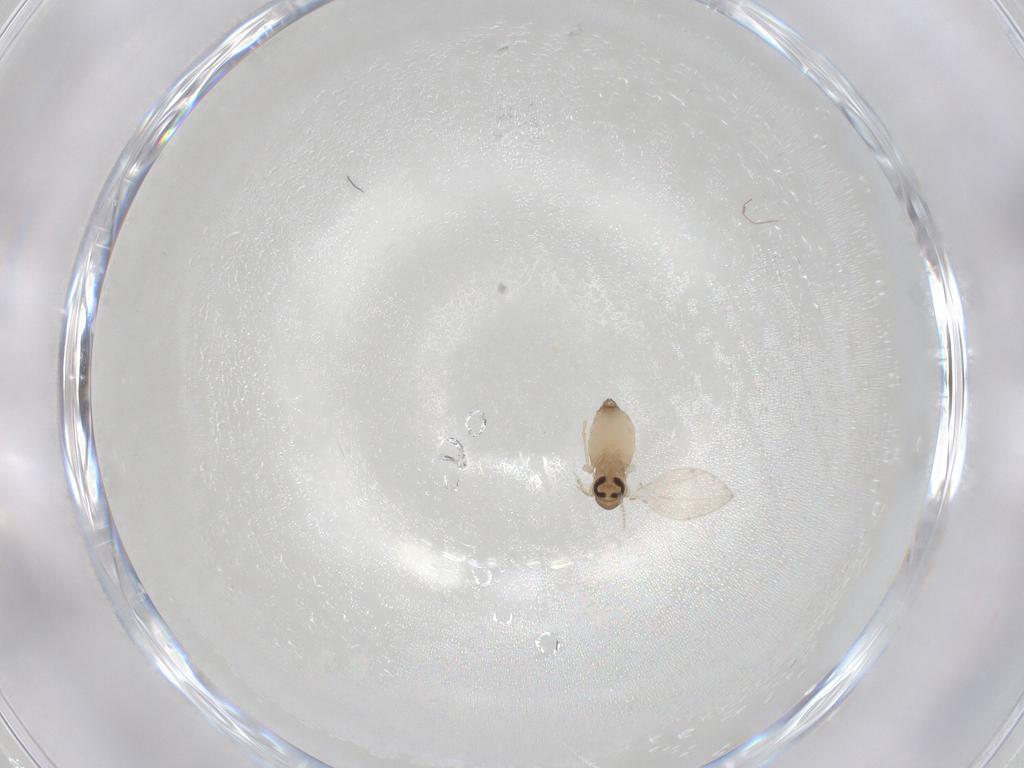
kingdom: Animalia
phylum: Arthropoda
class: Insecta
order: Diptera
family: Psychodidae
